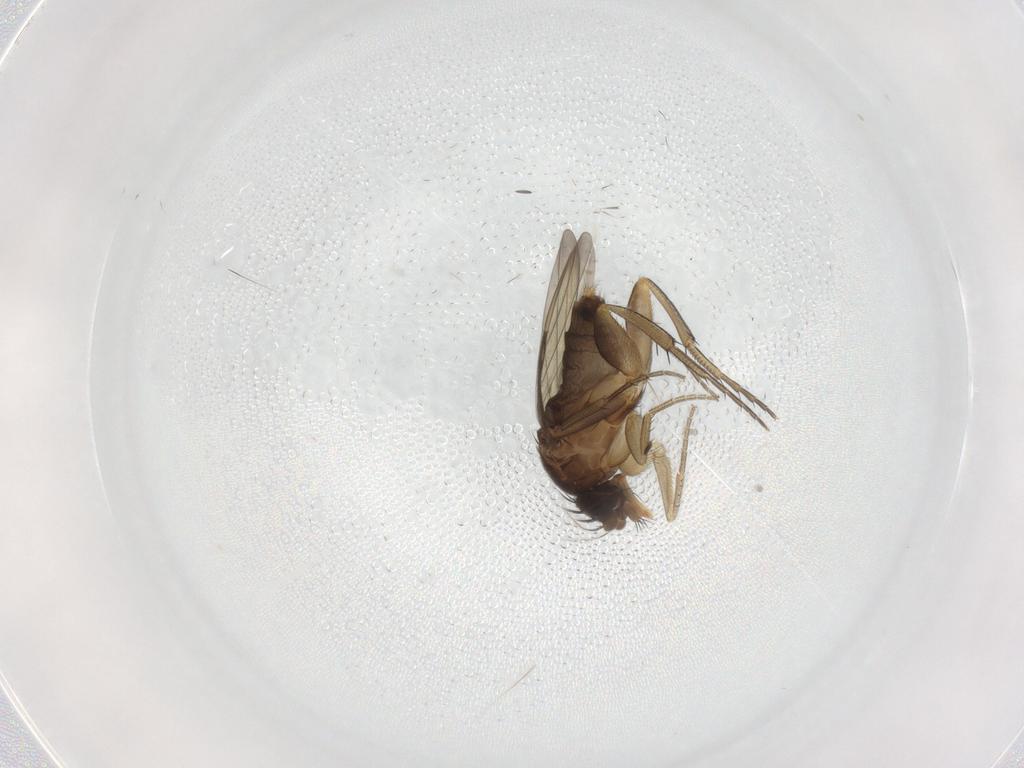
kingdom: Animalia
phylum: Arthropoda
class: Insecta
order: Diptera
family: Phoridae
